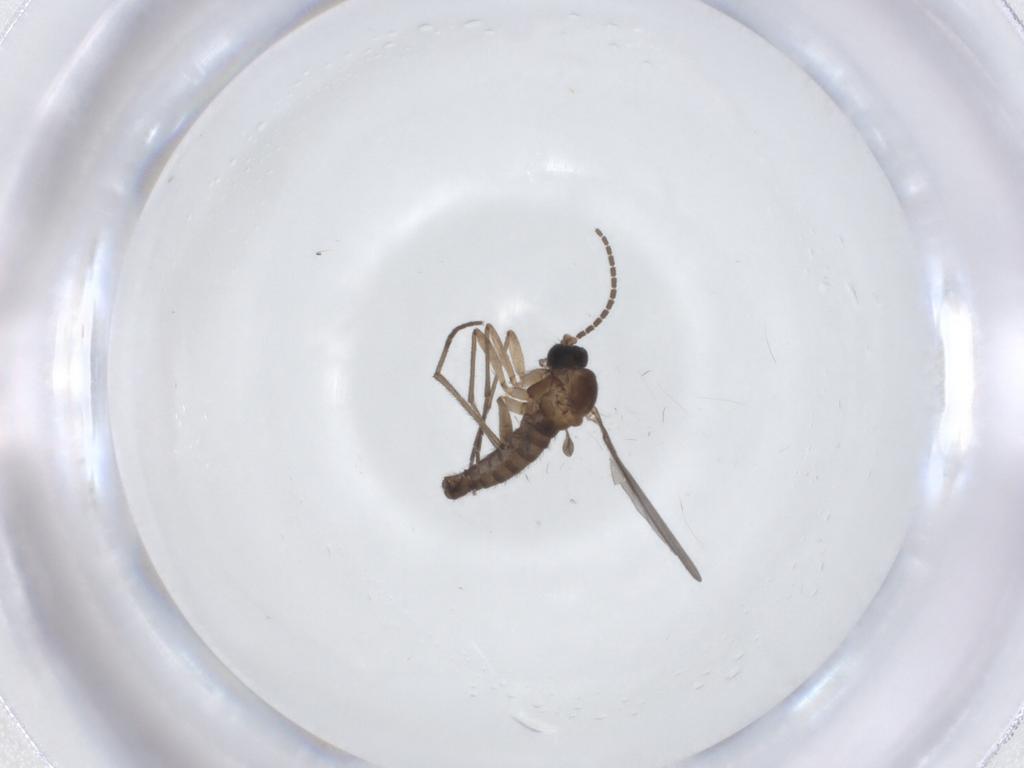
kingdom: Animalia
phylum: Arthropoda
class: Insecta
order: Diptera
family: Sciaridae
